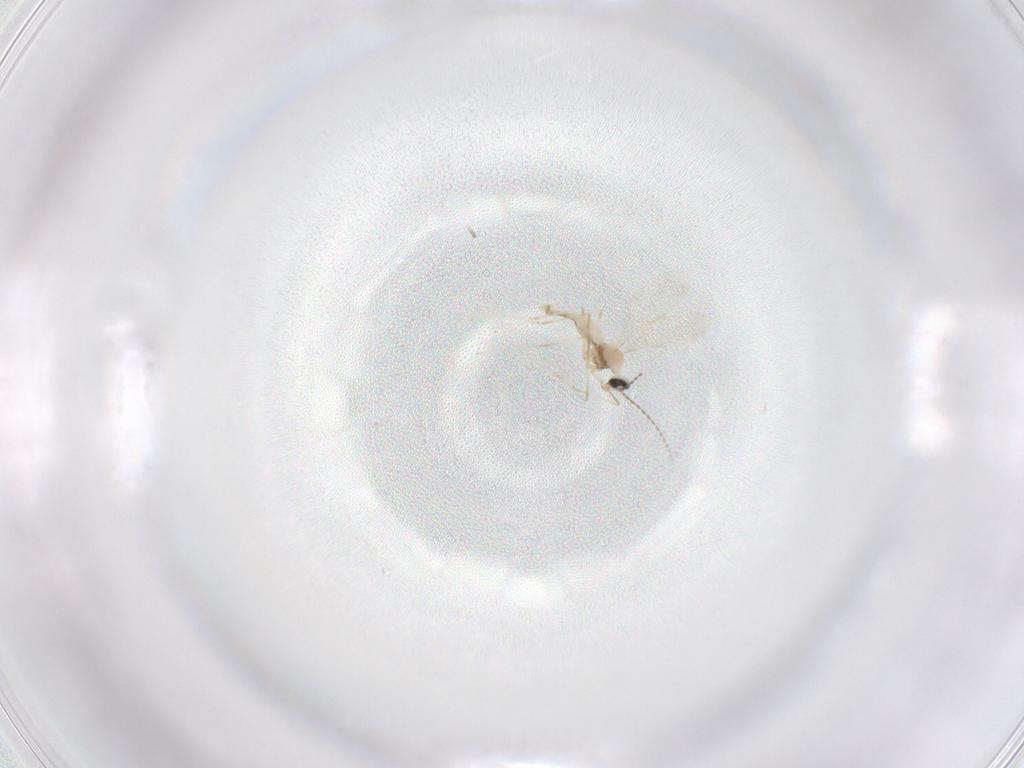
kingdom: Animalia
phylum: Arthropoda
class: Insecta
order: Diptera
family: Cecidomyiidae
